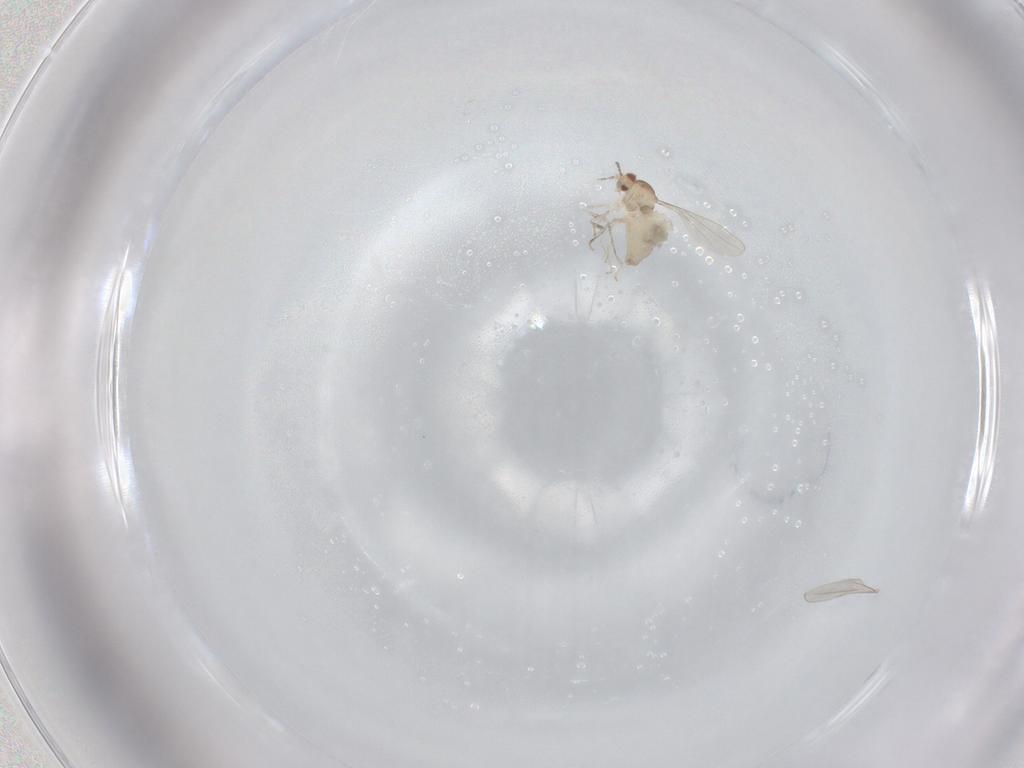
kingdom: Animalia
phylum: Arthropoda
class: Insecta
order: Diptera
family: Cecidomyiidae
